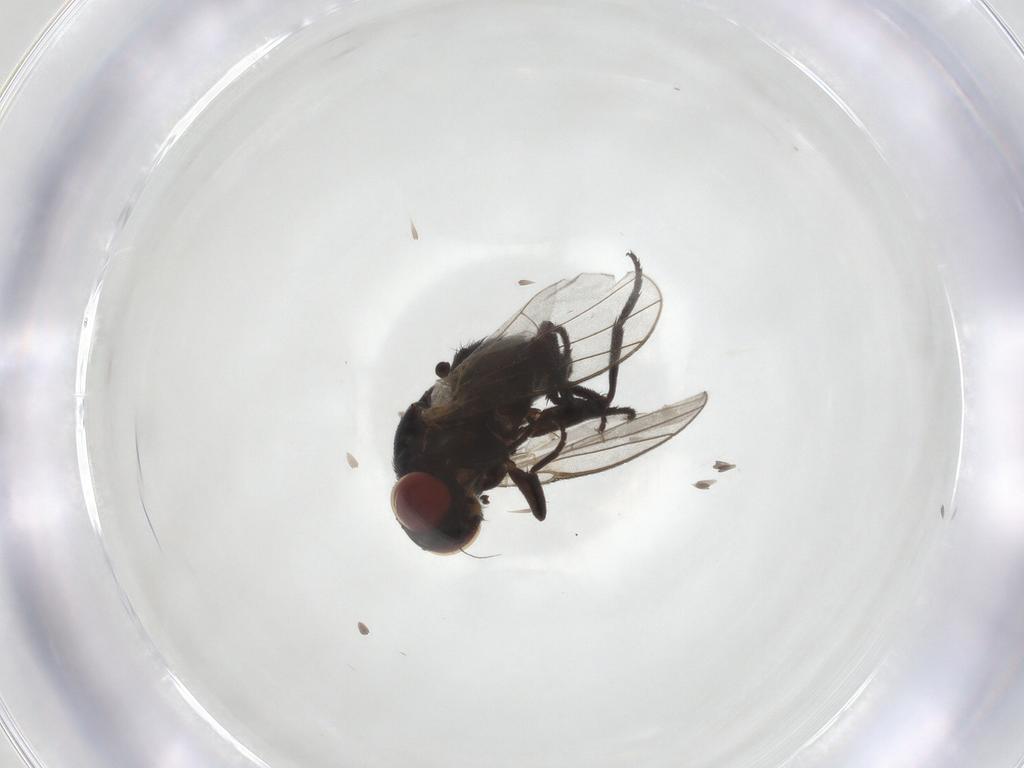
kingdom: Animalia
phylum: Arthropoda
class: Insecta
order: Diptera
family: Agromyzidae
